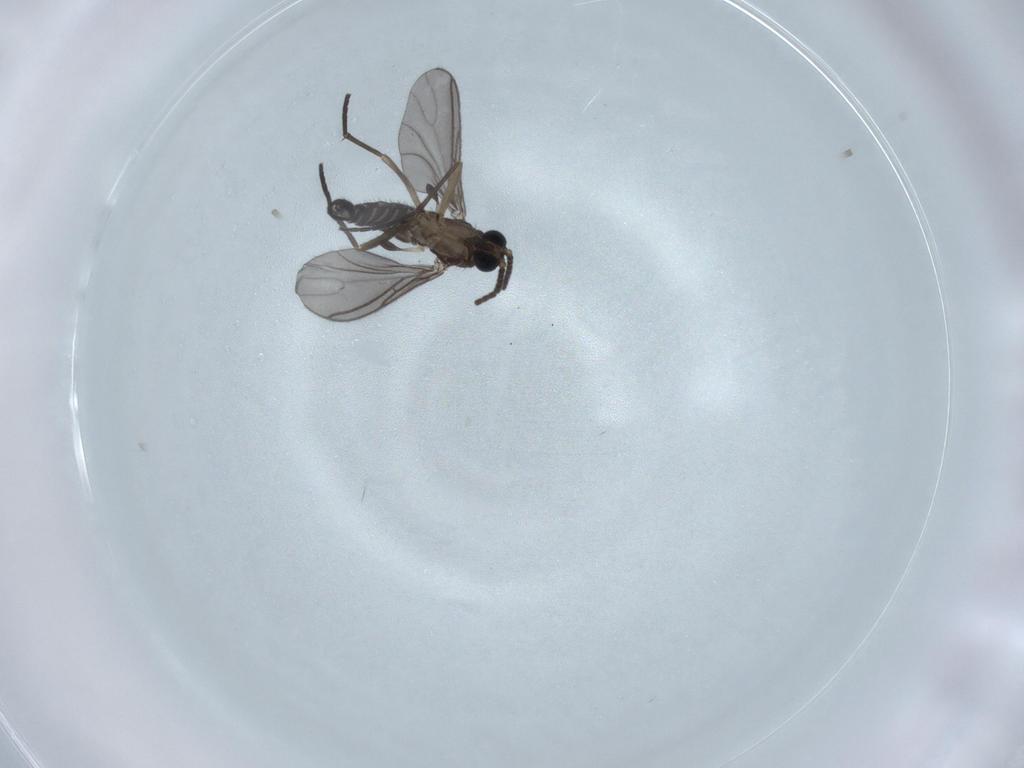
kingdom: Animalia
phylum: Arthropoda
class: Insecta
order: Diptera
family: Sciaridae
